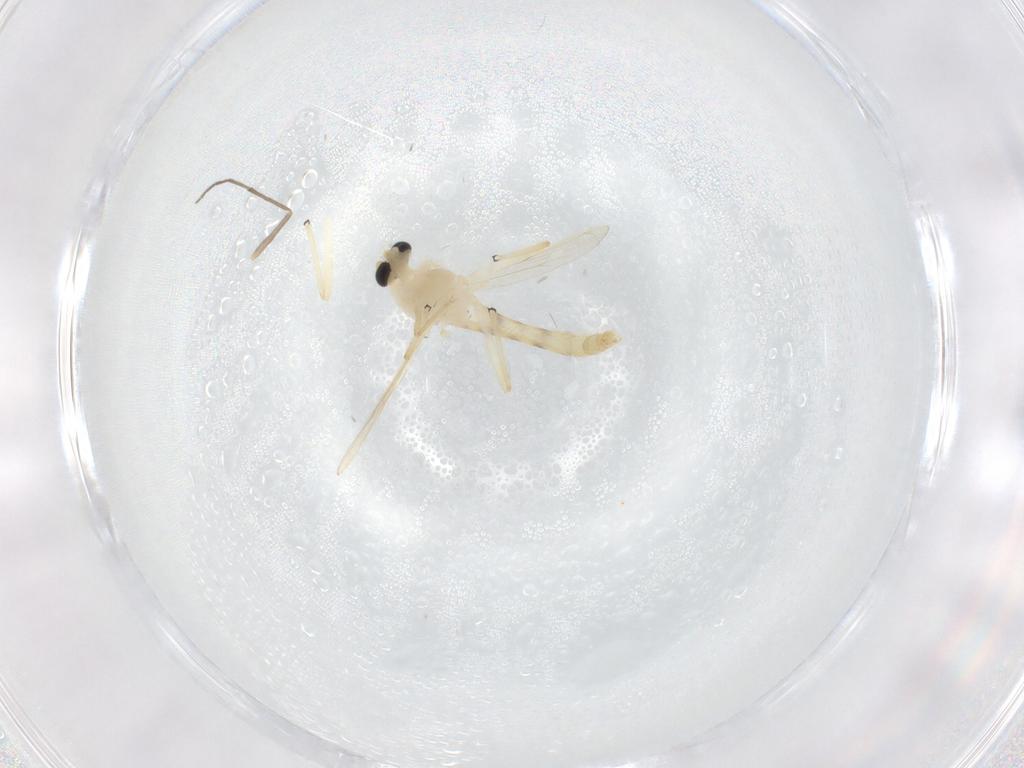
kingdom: Animalia
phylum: Arthropoda
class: Insecta
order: Diptera
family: Chironomidae
